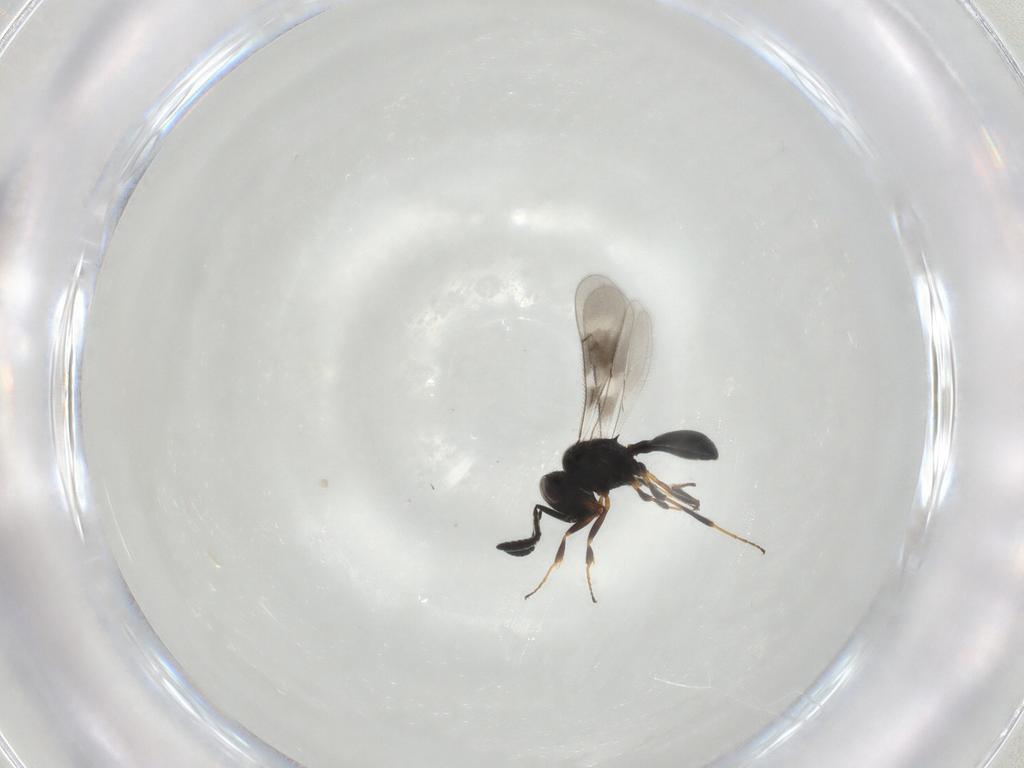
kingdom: Animalia
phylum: Arthropoda
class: Insecta
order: Hymenoptera
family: Scelionidae
